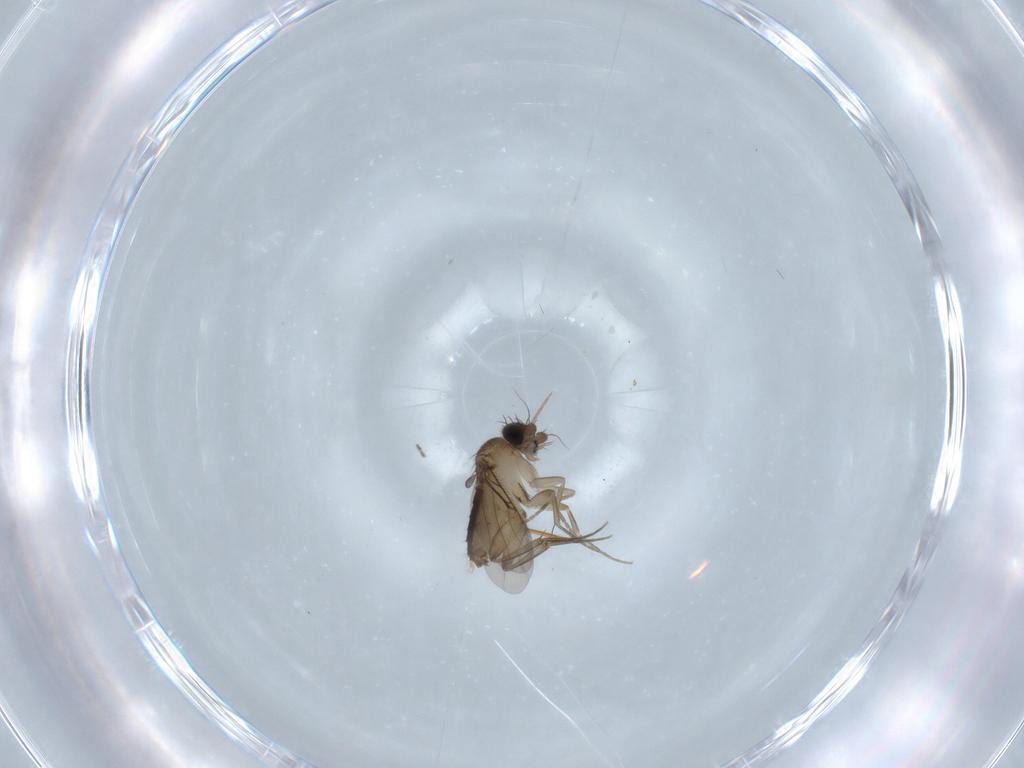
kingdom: Animalia
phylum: Arthropoda
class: Insecta
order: Diptera
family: Phoridae
